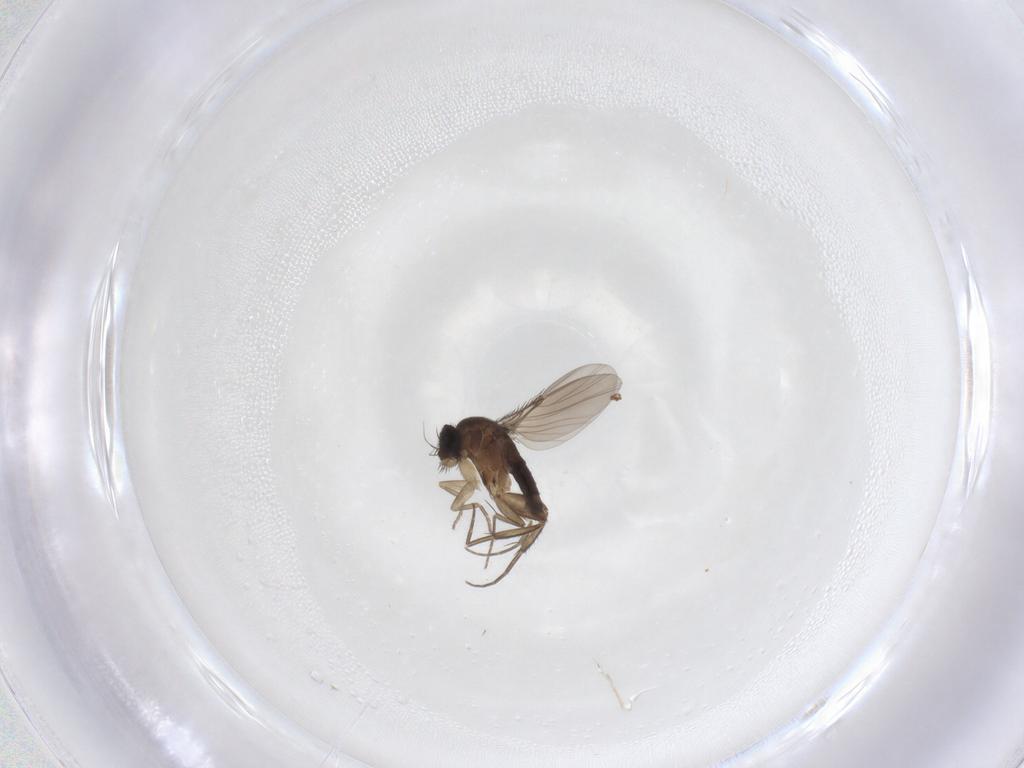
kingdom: Animalia
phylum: Arthropoda
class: Insecta
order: Diptera
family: Phoridae
